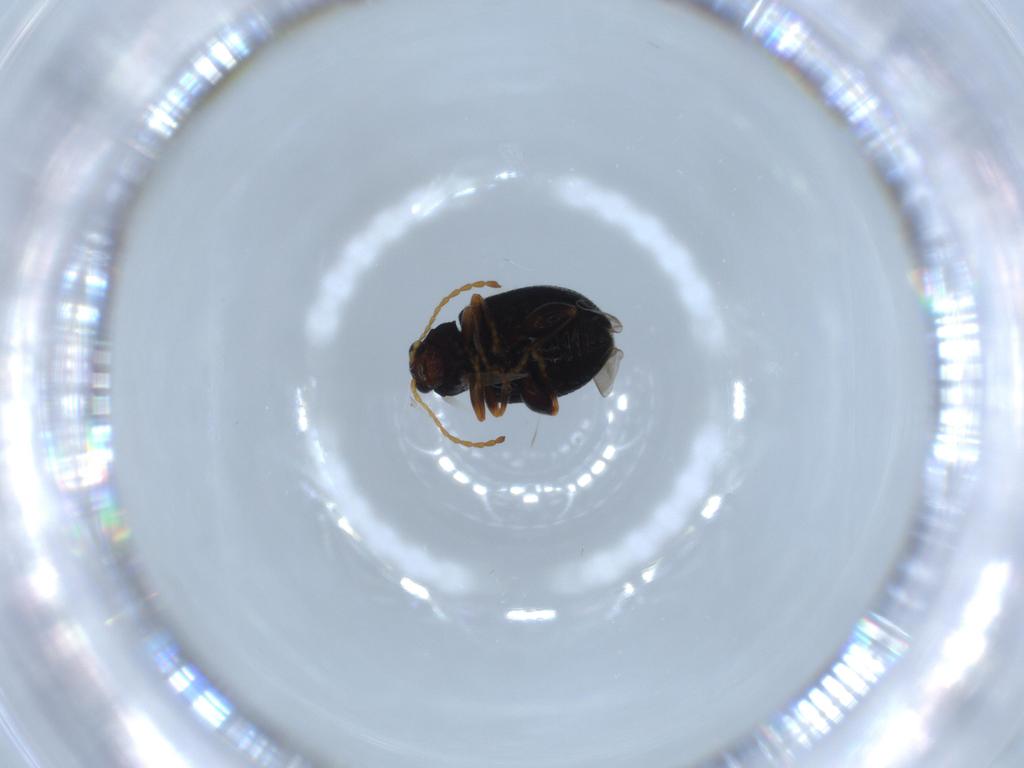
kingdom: Animalia
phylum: Arthropoda
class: Insecta
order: Coleoptera
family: Chrysomelidae
